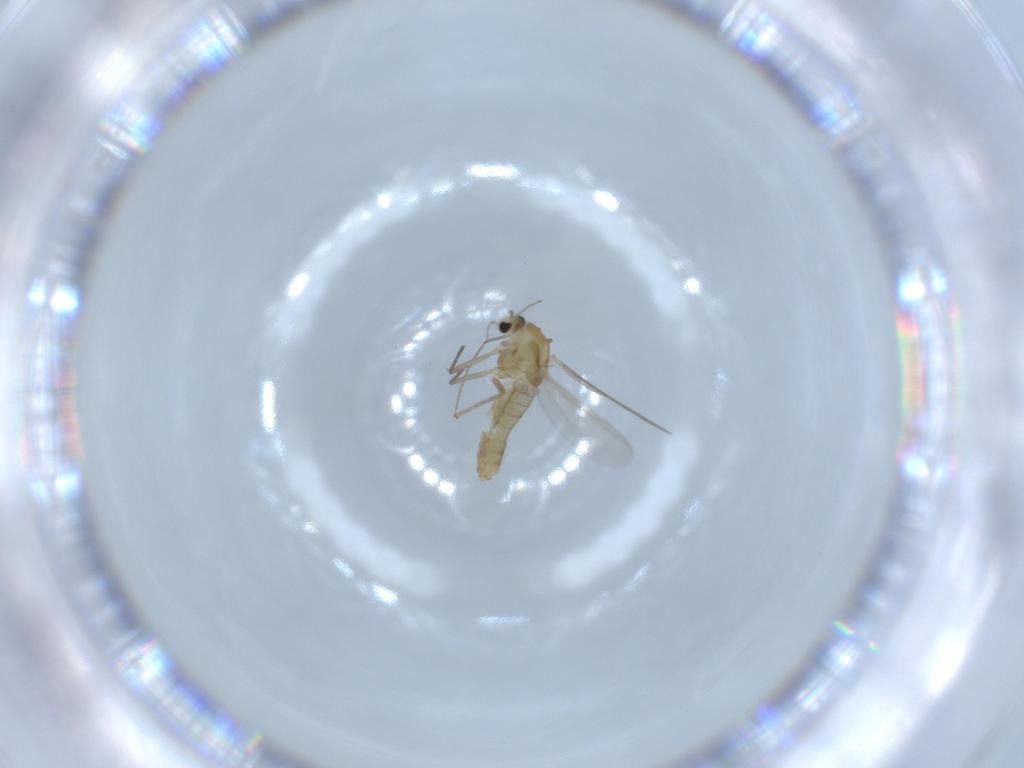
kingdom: Animalia
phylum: Arthropoda
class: Insecta
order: Diptera
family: Chironomidae
